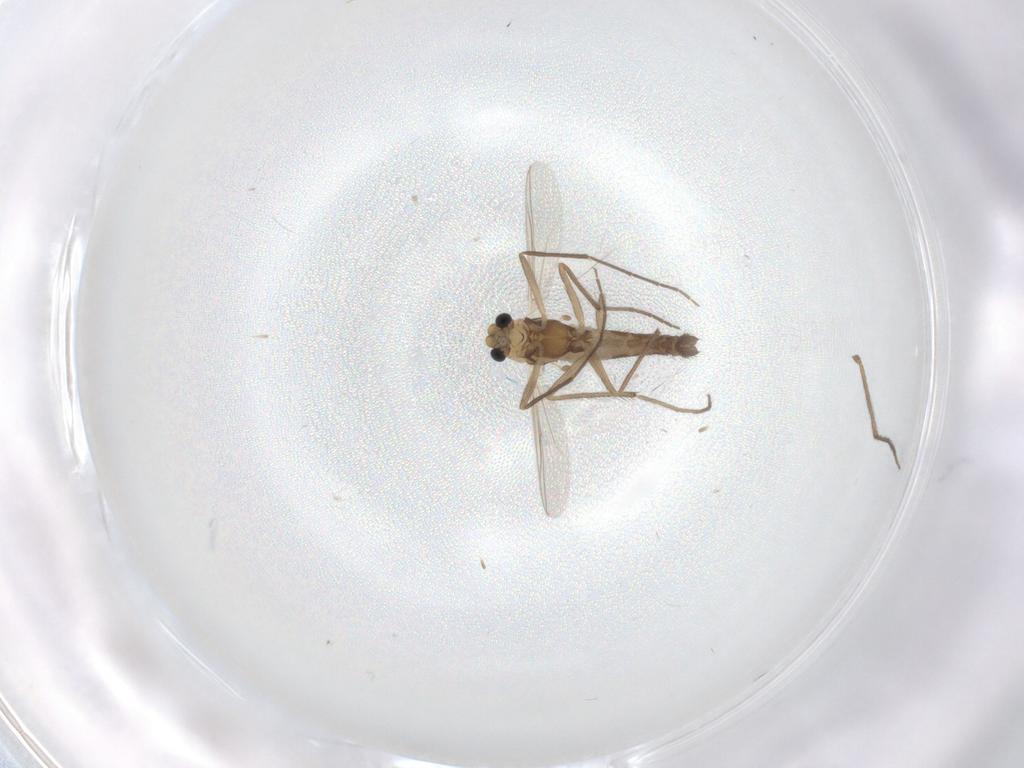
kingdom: Animalia
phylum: Arthropoda
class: Insecta
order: Diptera
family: Chironomidae
